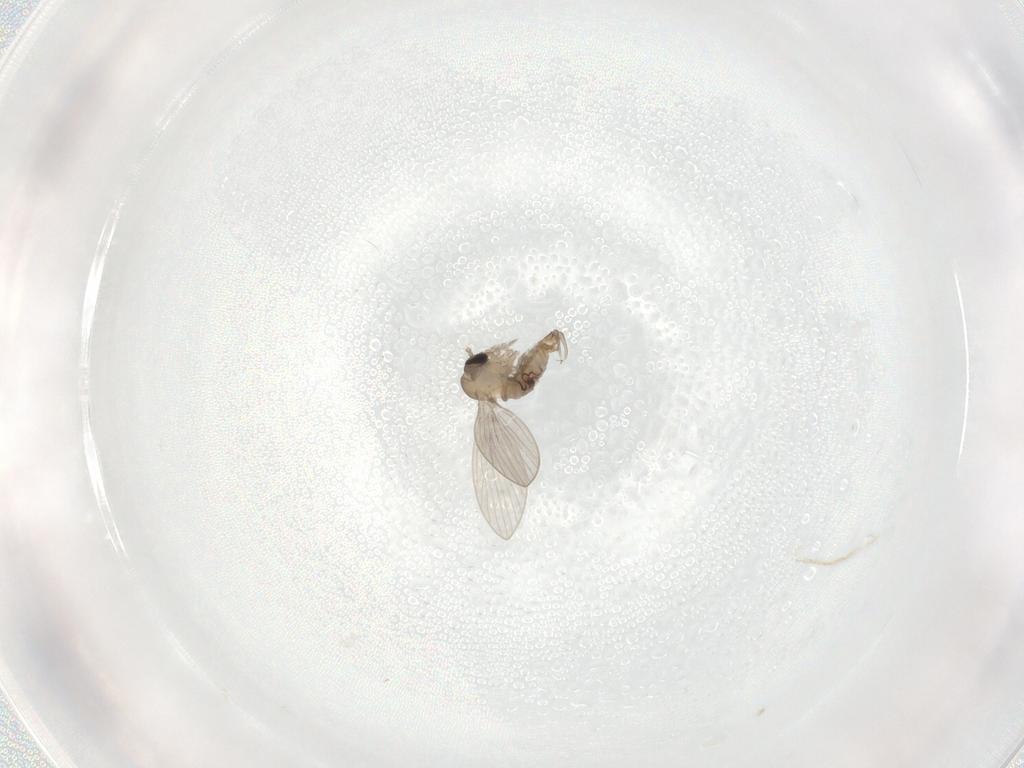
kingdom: Animalia
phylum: Arthropoda
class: Insecta
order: Diptera
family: Psychodidae
